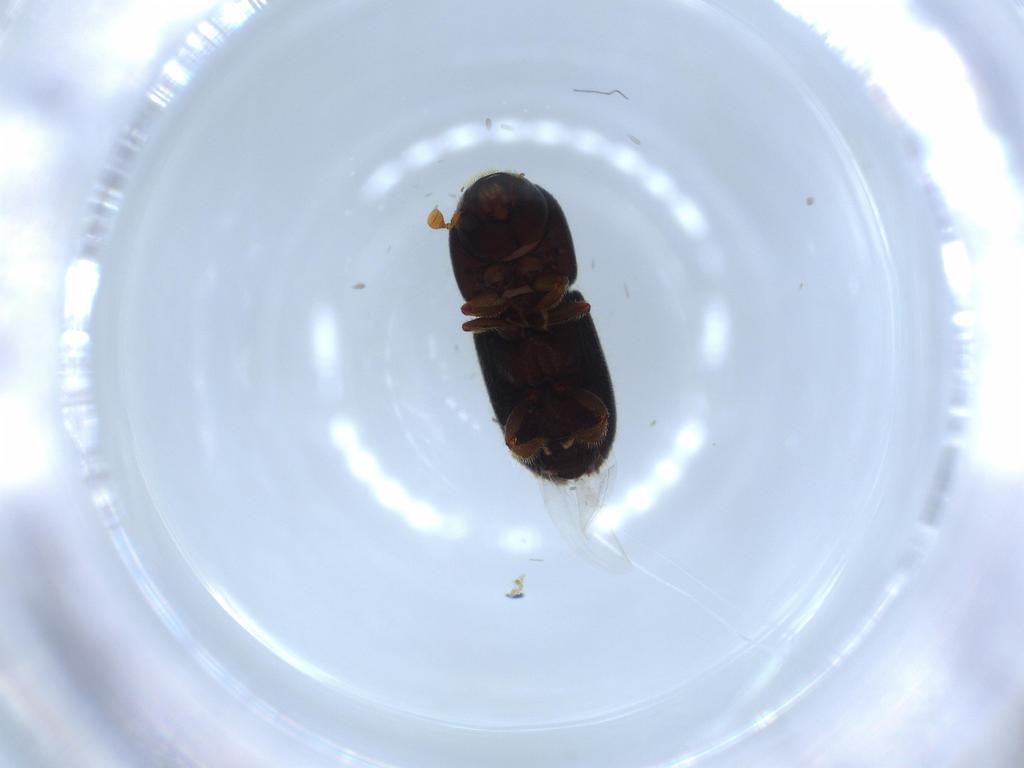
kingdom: Animalia
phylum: Arthropoda
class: Insecta
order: Coleoptera
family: Curculionidae
